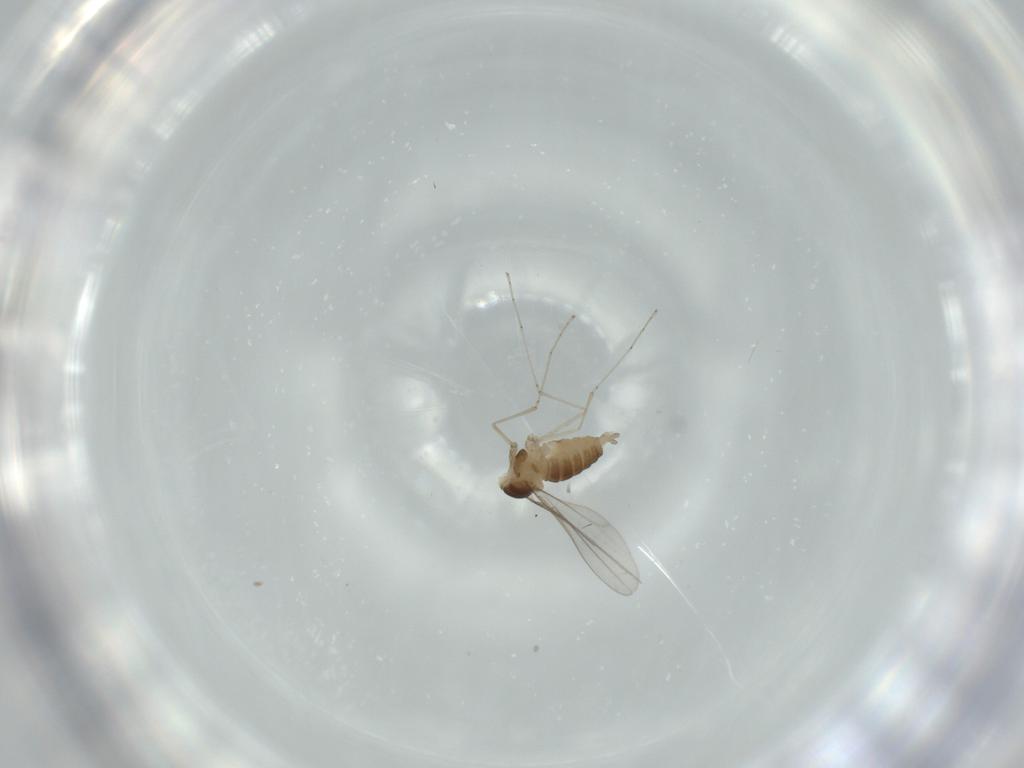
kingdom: Animalia
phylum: Arthropoda
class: Insecta
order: Diptera
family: Cecidomyiidae
